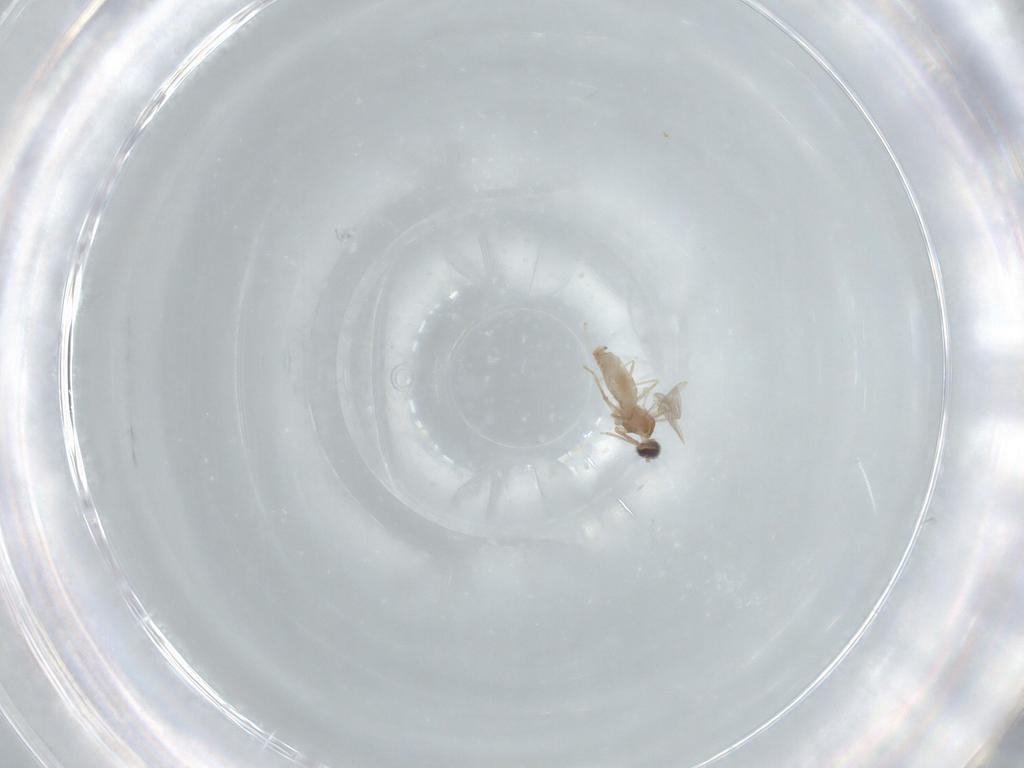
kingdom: Animalia
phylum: Arthropoda
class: Insecta
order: Diptera
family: Cecidomyiidae
